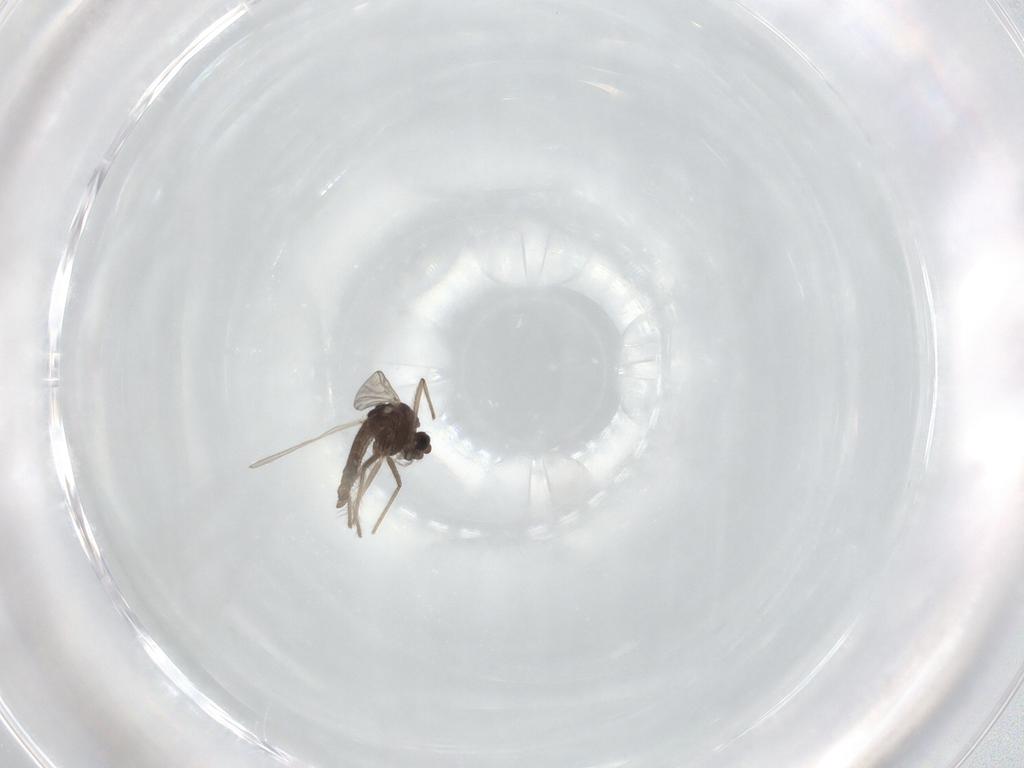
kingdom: Animalia
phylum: Arthropoda
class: Insecta
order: Diptera
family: Chironomidae
